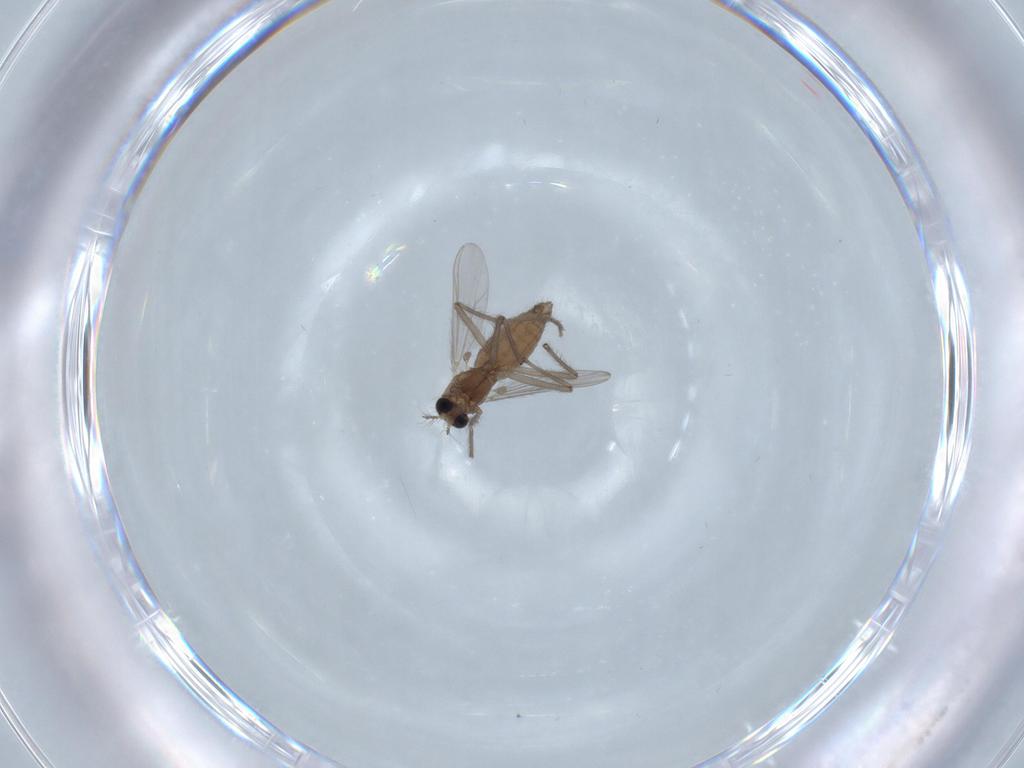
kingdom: Animalia
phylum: Arthropoda
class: Insecta
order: Diptera
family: Chironomidae
